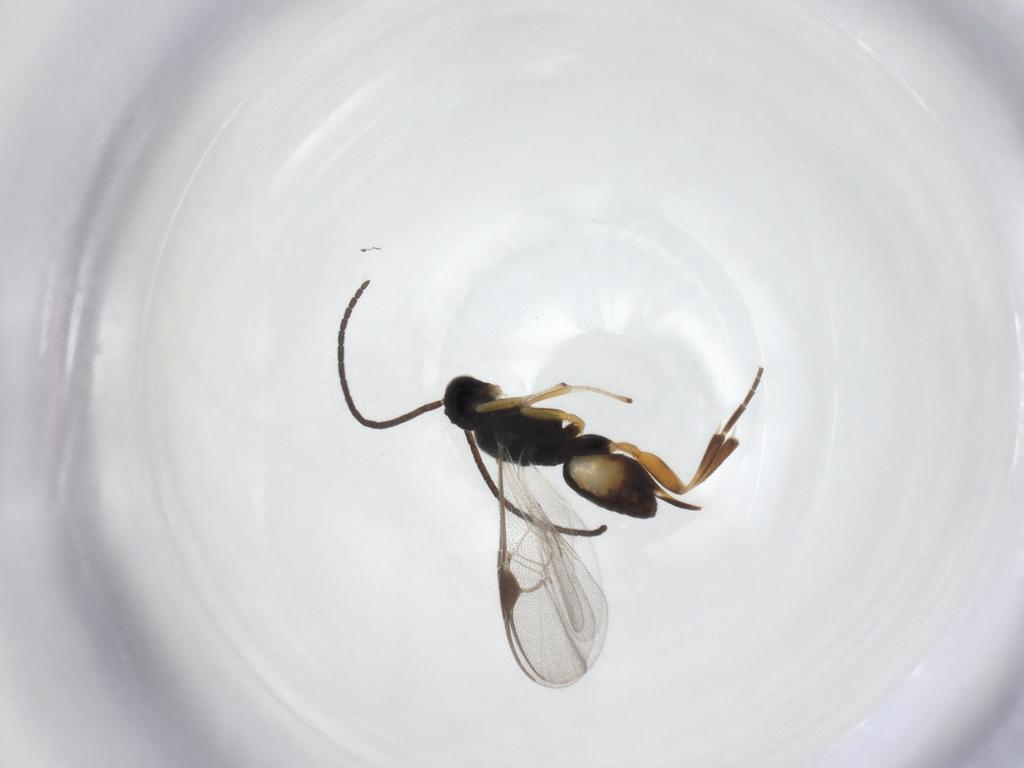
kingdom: Animalia
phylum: Arthropoda
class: Insecta
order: Hymenoptera
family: Braconidae
